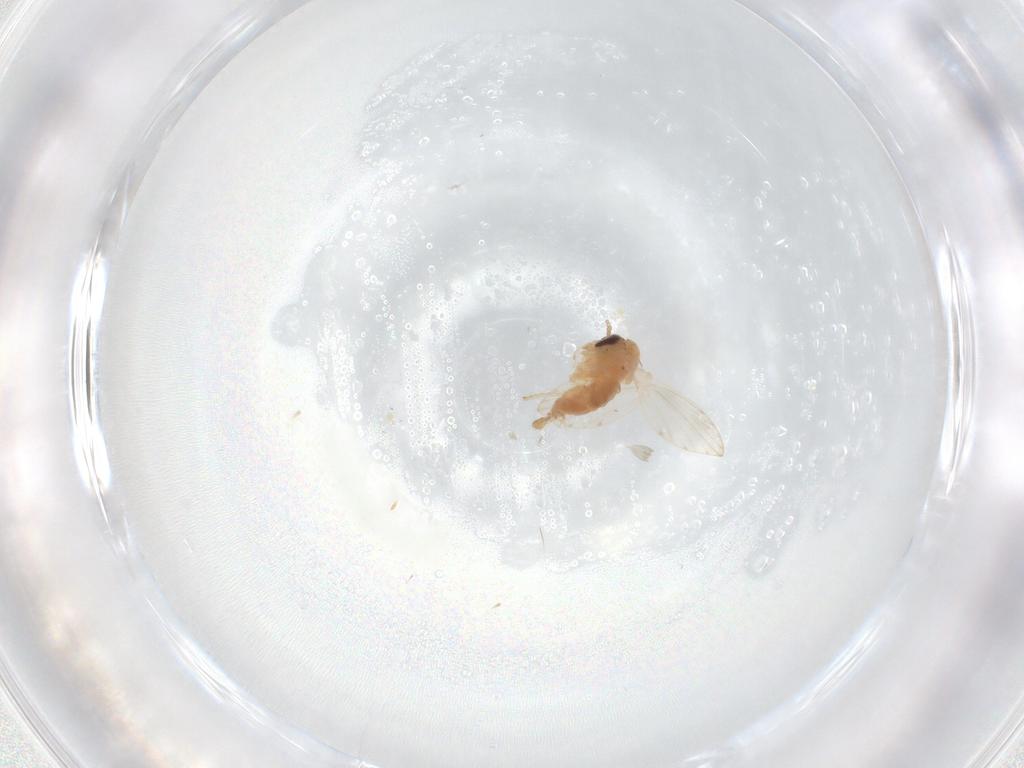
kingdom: Animalia
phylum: Arthropoda
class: Insecta
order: Diptera
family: Psychodidae
